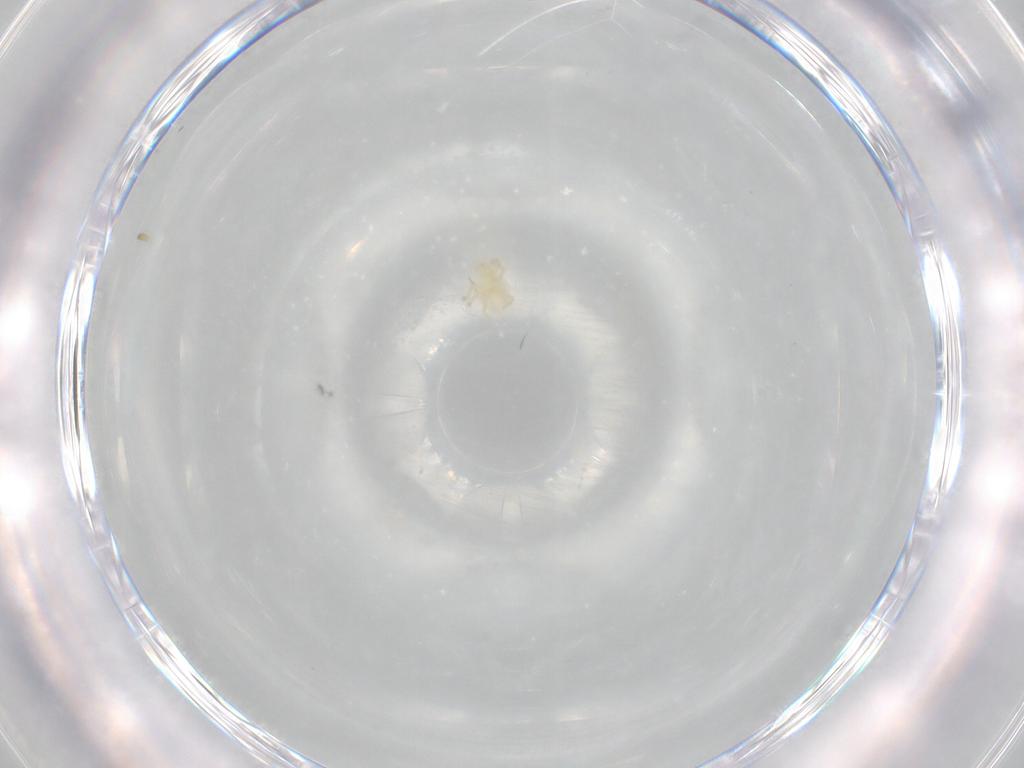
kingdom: Animalia
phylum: Arthropoda
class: Arachnida
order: Trombidiformes
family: Trombidiidae
